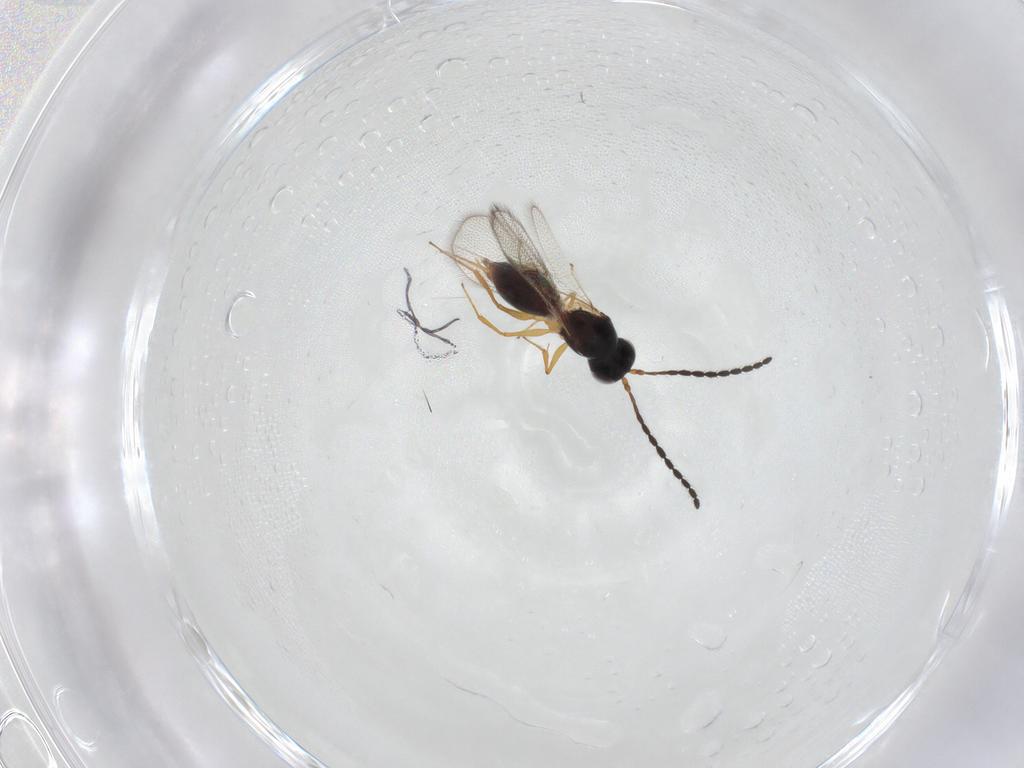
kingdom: Animalia
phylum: Arthropoda
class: Insecta
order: Hymenoptera
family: Figitidae
